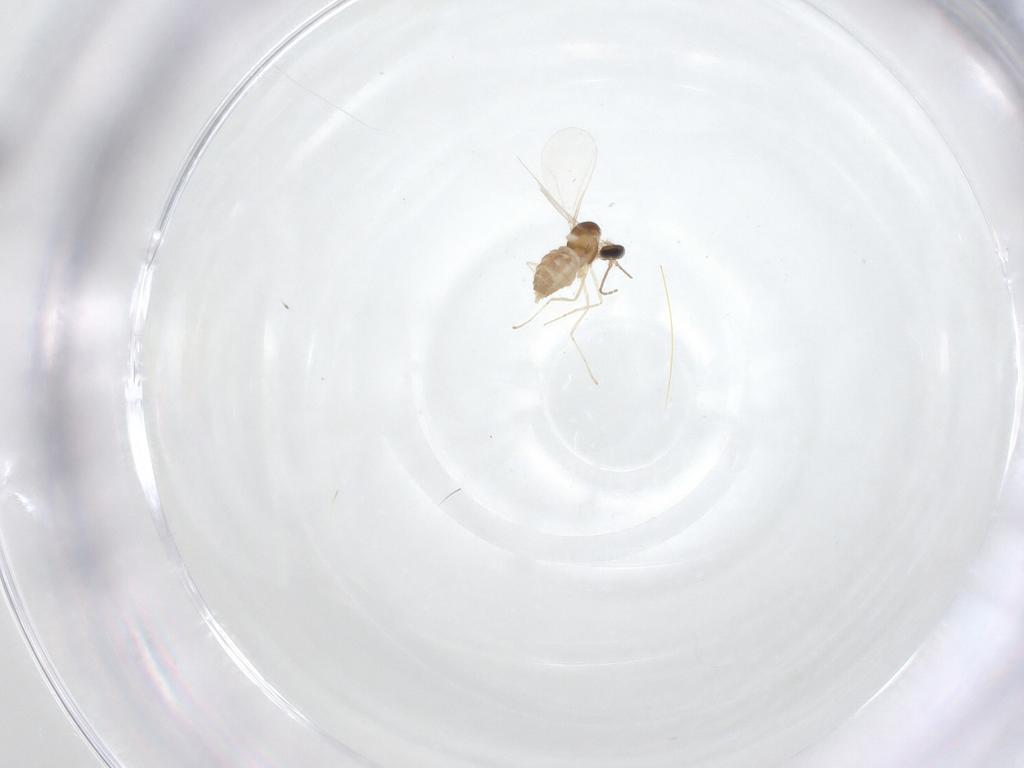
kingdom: Animalia
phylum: Arthropoda
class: Insecta
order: Diptera
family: Cecidomyiidae
